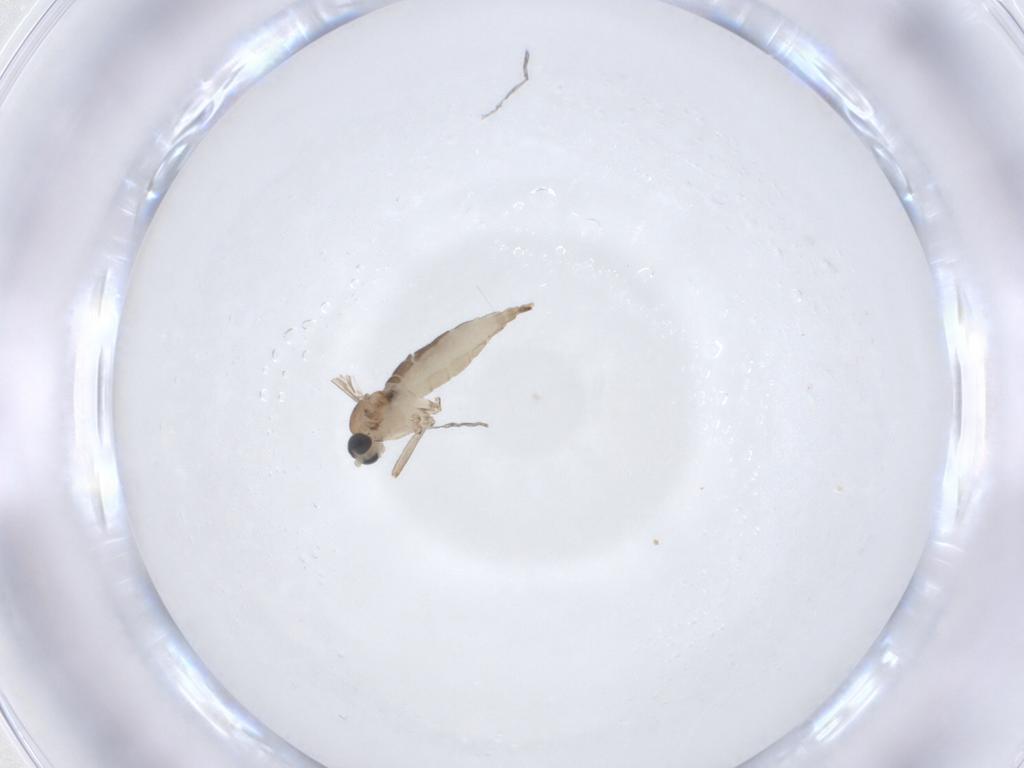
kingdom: Animalia
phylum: Arthropoda
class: Insecta
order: Diptera
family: Sciaridae
